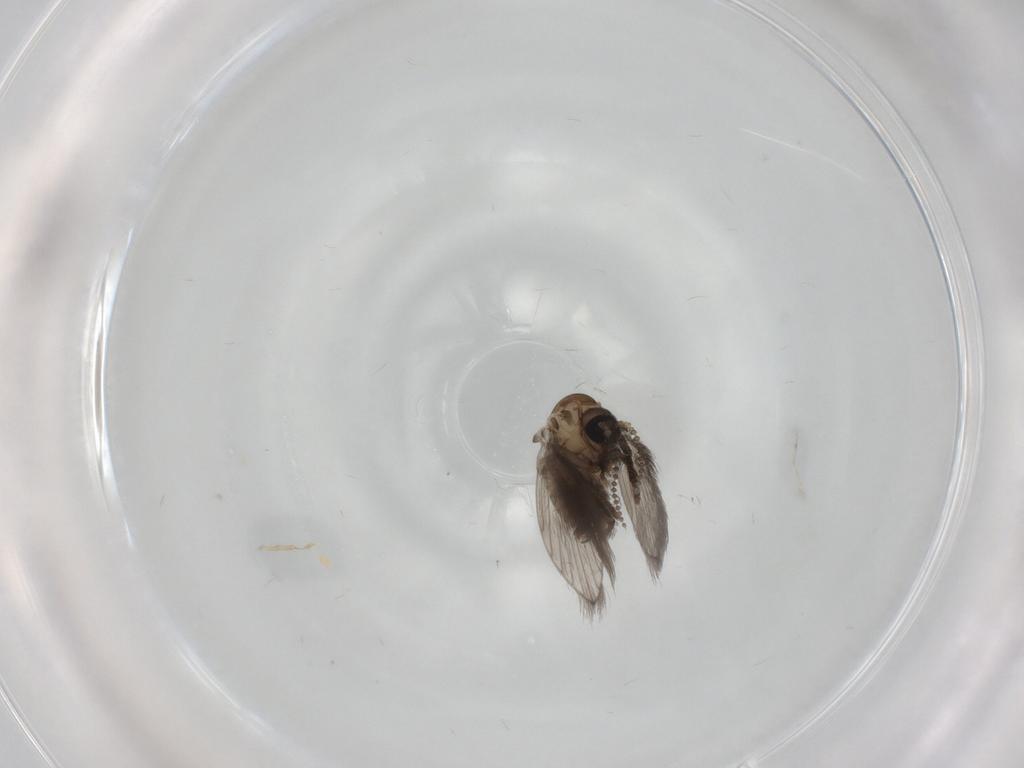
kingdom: Animalia
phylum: Arthropoda
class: Insecta
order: Diptera
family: Psychodidae
